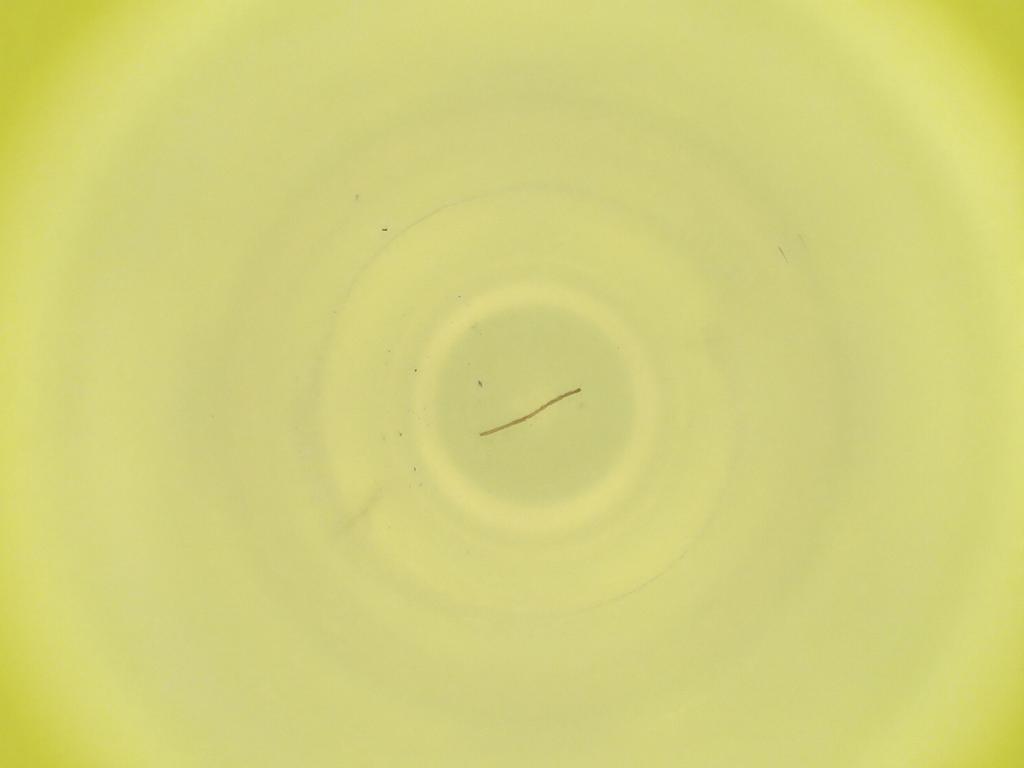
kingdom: Animalia
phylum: Arthropoda
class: Insecta
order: Diptera
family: Cecidomyiidae
